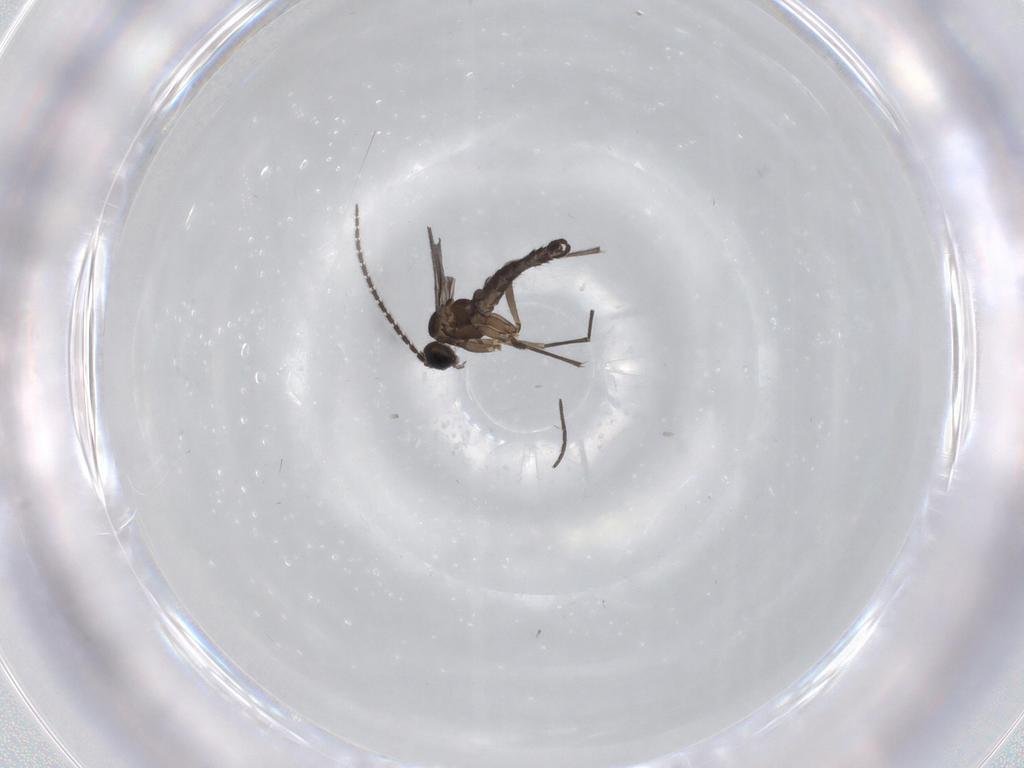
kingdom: Animalia
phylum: Arthropoda
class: Insecta
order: Diptera
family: Sciaridae
